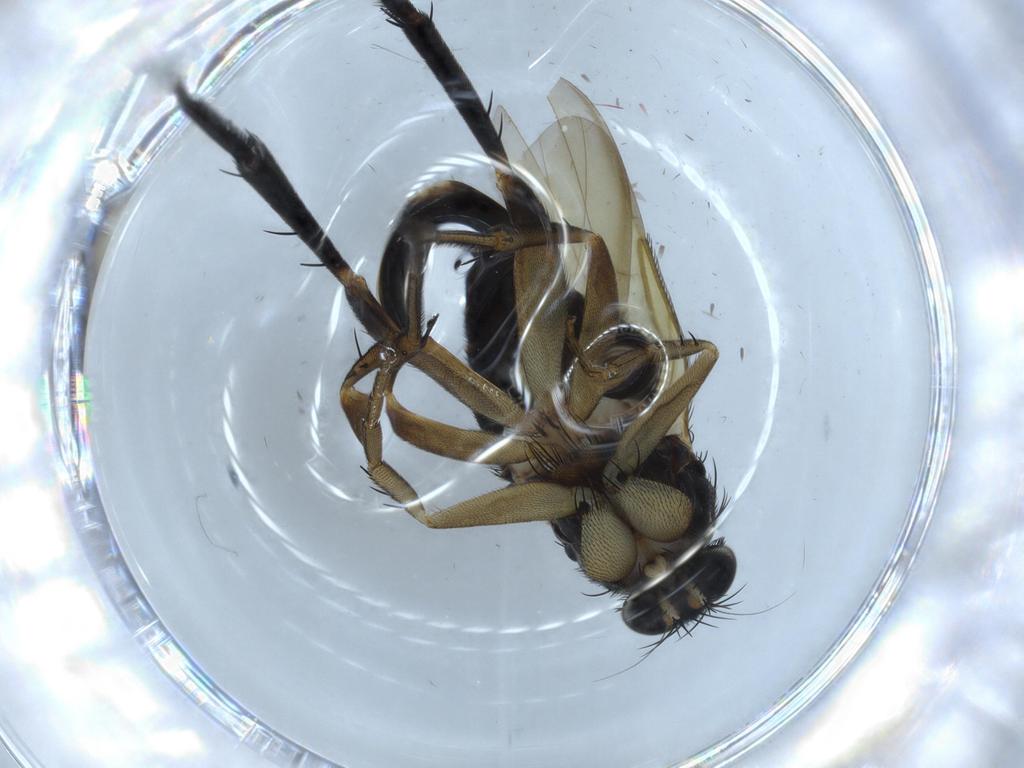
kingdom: Animalia
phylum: Arthropoda
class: Insecta
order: Diptera
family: Phoridae
